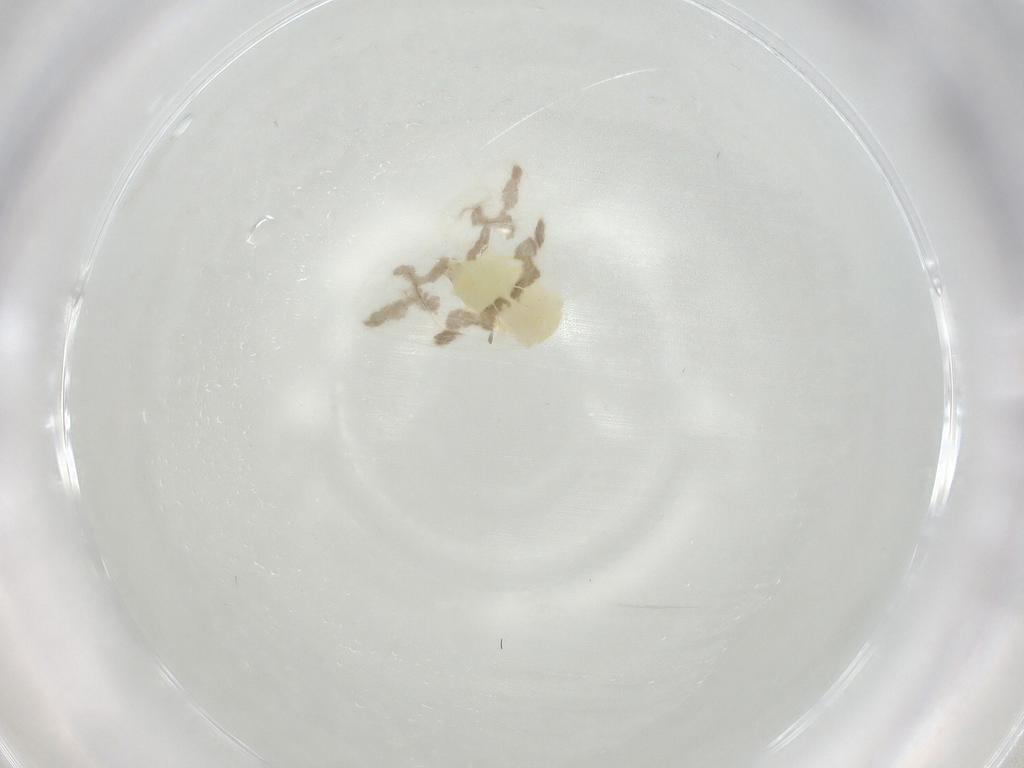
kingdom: Animalia
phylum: Arthropoda
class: Insecta
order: Hemiptera
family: Aleyrodidae
